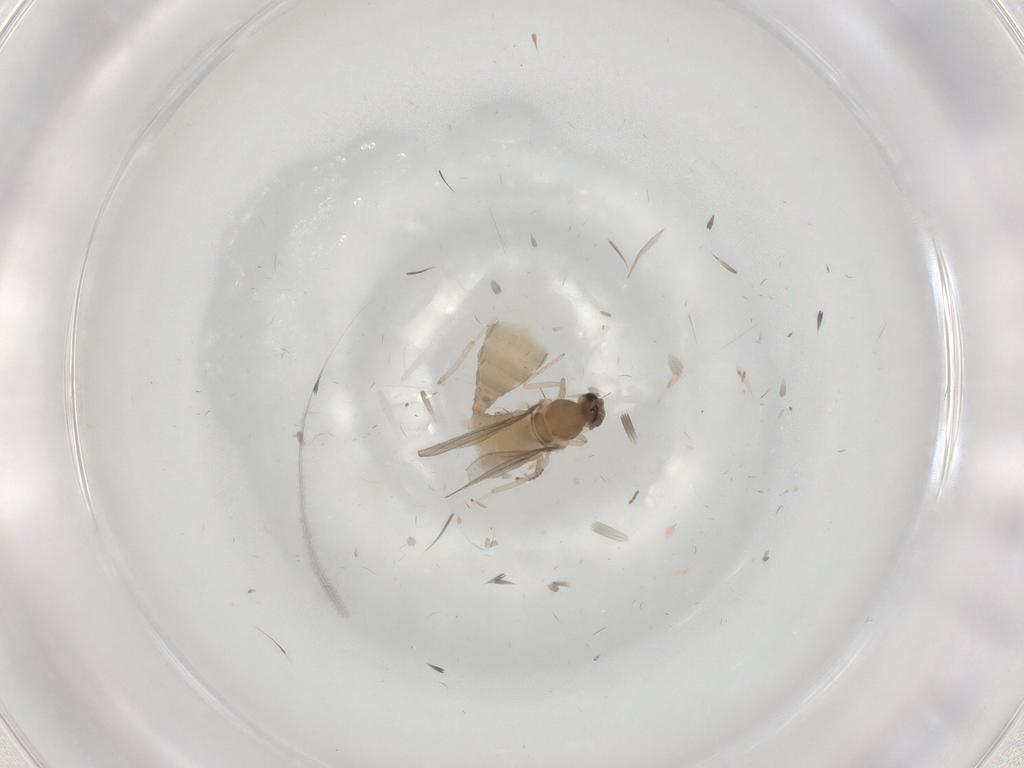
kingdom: Animalia
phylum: Arthropoda
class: Insecta
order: Diptera
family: Cecidomyiidae
